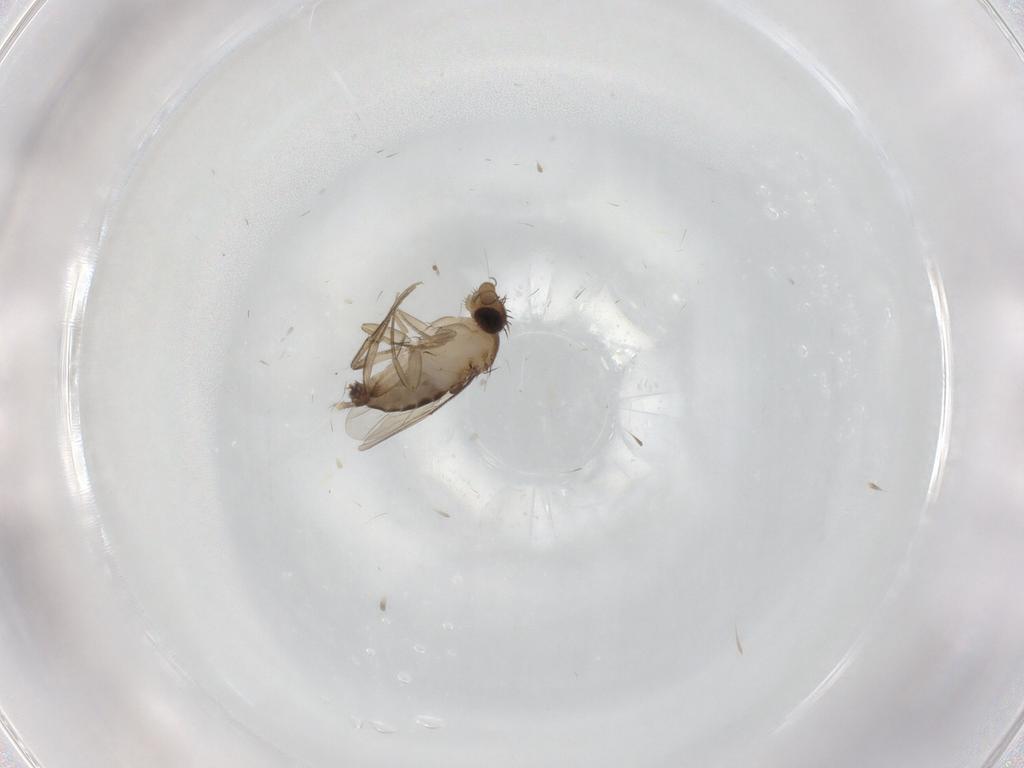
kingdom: Animalia
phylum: Arthropoda
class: Insecta
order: Diptera
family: Phoridae
